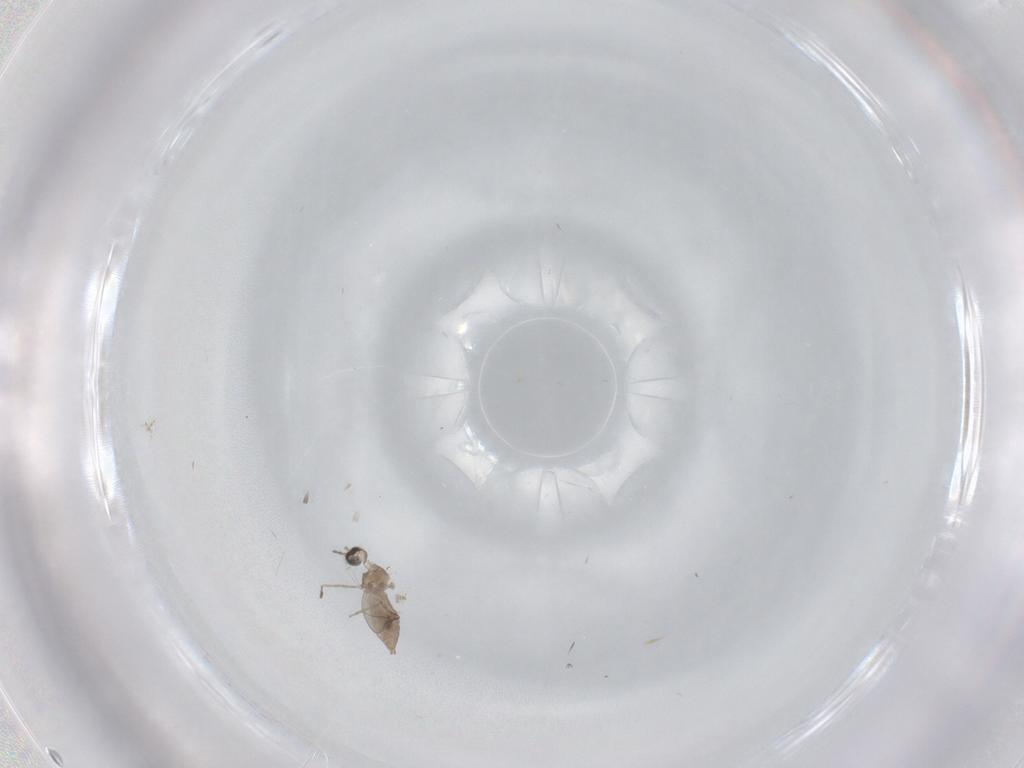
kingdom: Animalia
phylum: Arthropoda
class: Insecta
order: Diptera
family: Cecidomyiidae
